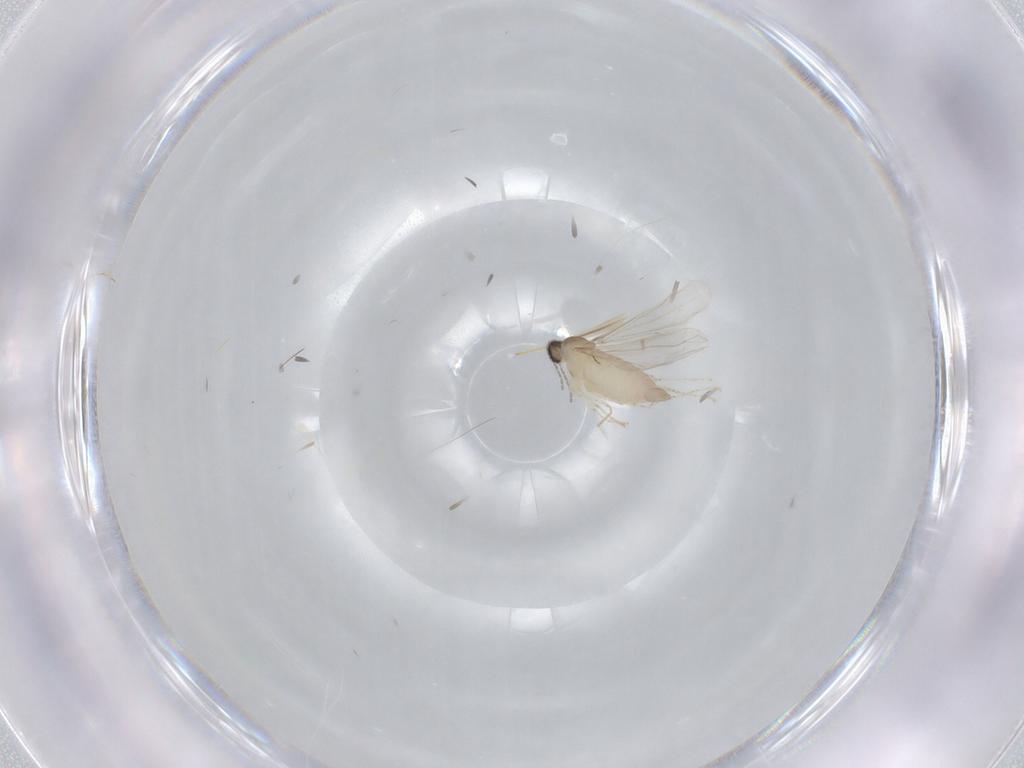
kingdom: Animalia
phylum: Arthropoda
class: Insecta
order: Diptera
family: Cecidomyiidae
